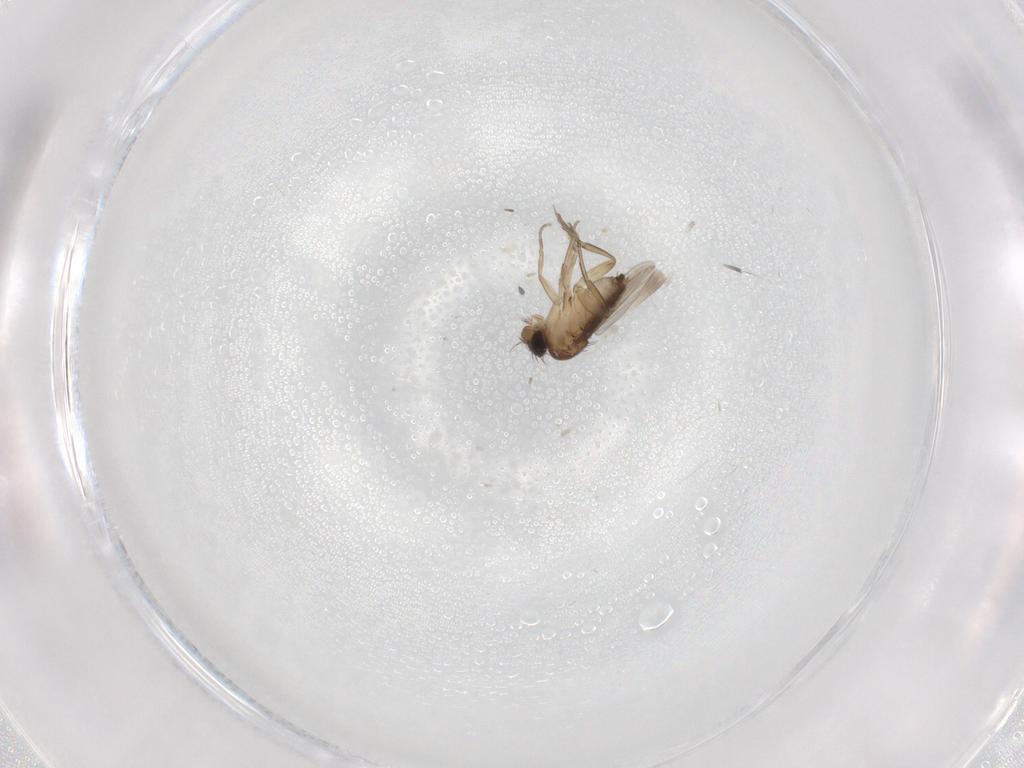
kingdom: Animalia
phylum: Arthropoda
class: Insecta
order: Diptera
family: Phoridae
